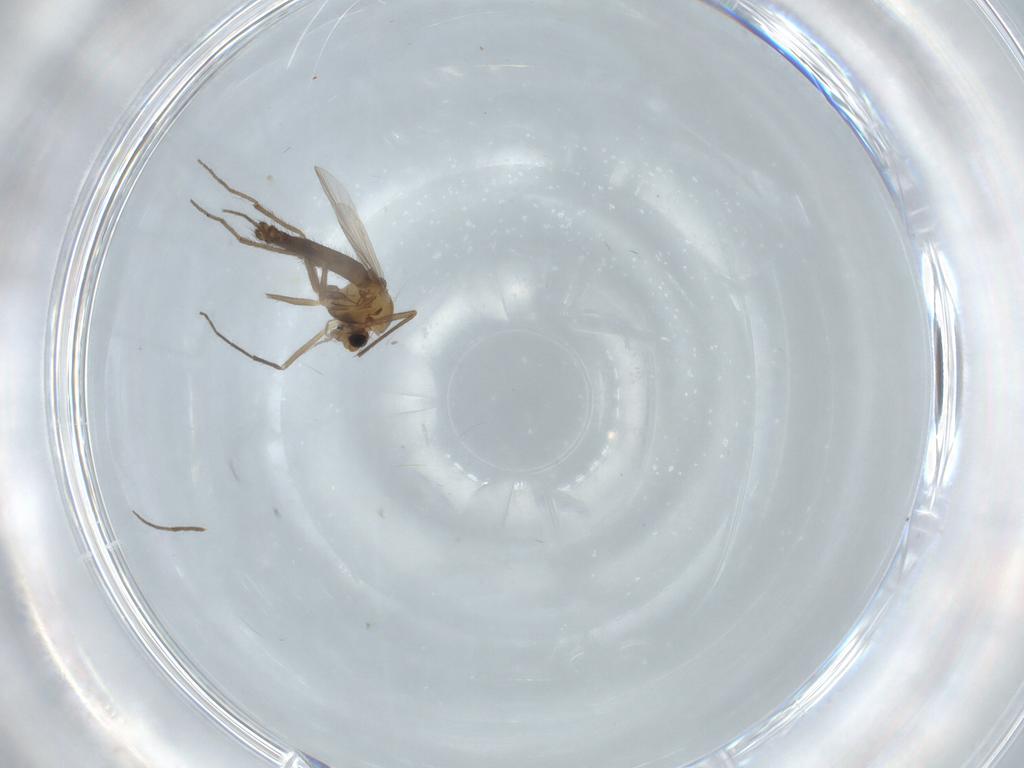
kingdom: Animalia
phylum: Arthropoda
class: Insecta
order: Diptera
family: Chironomidae
